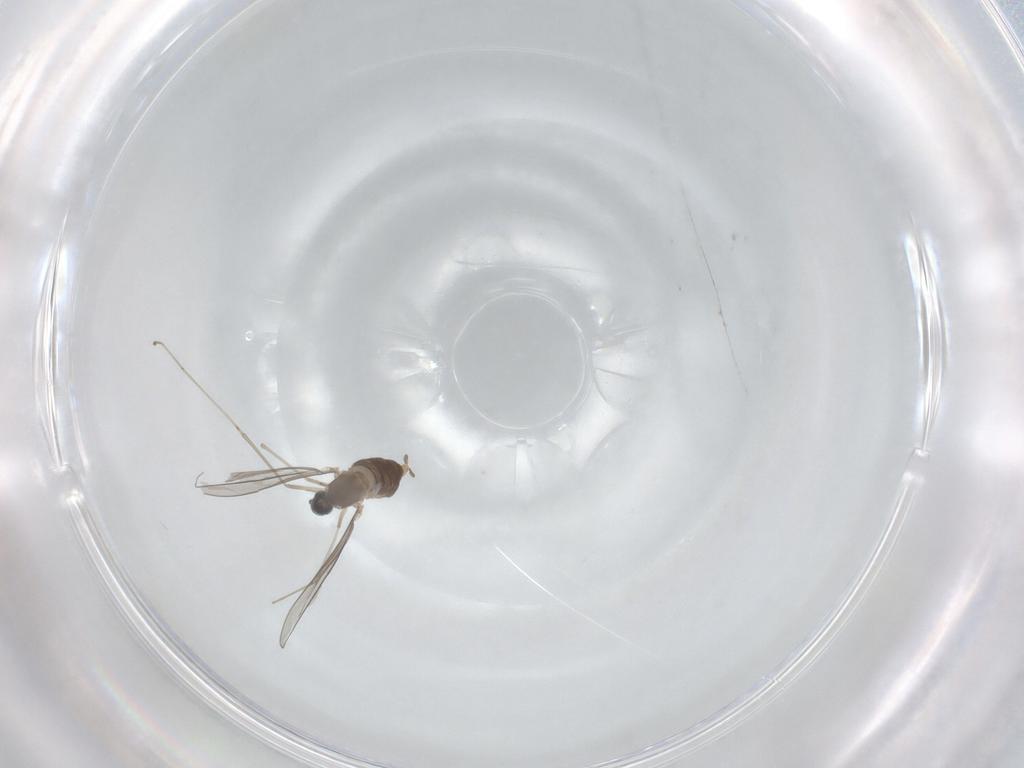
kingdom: Animalia
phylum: Arthropoda
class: Insecta
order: Diptera
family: Cecidomyiidae
